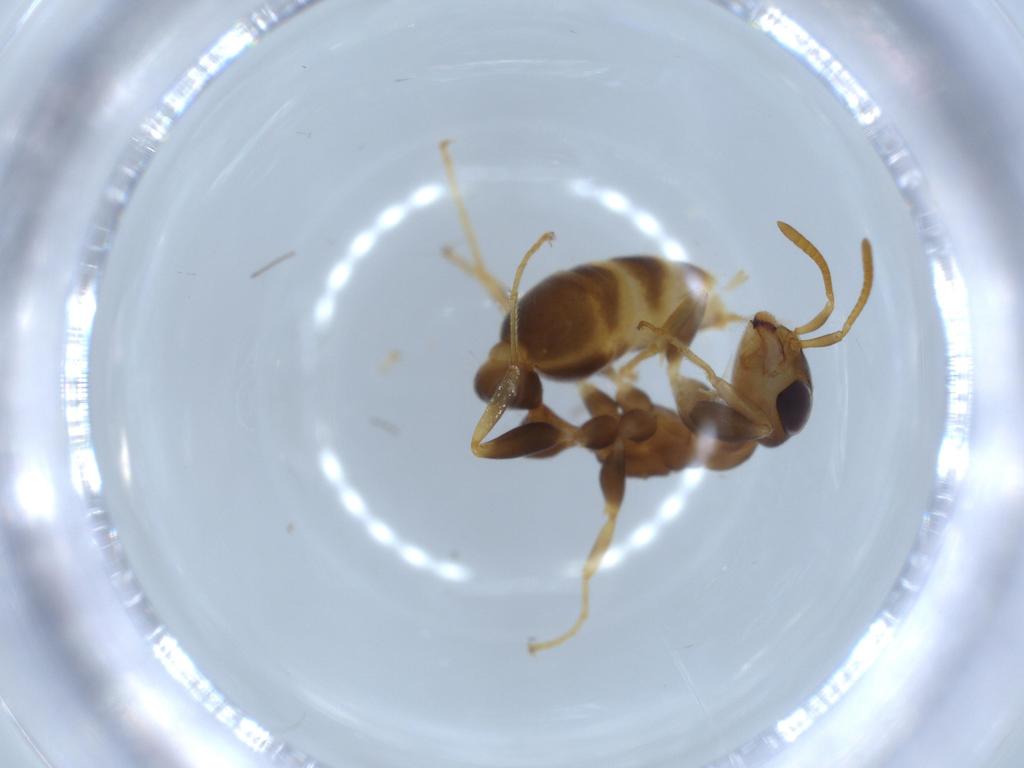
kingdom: Animalia
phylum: Arthropoda
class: Insecta
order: Hymenoptera
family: Formicidae
